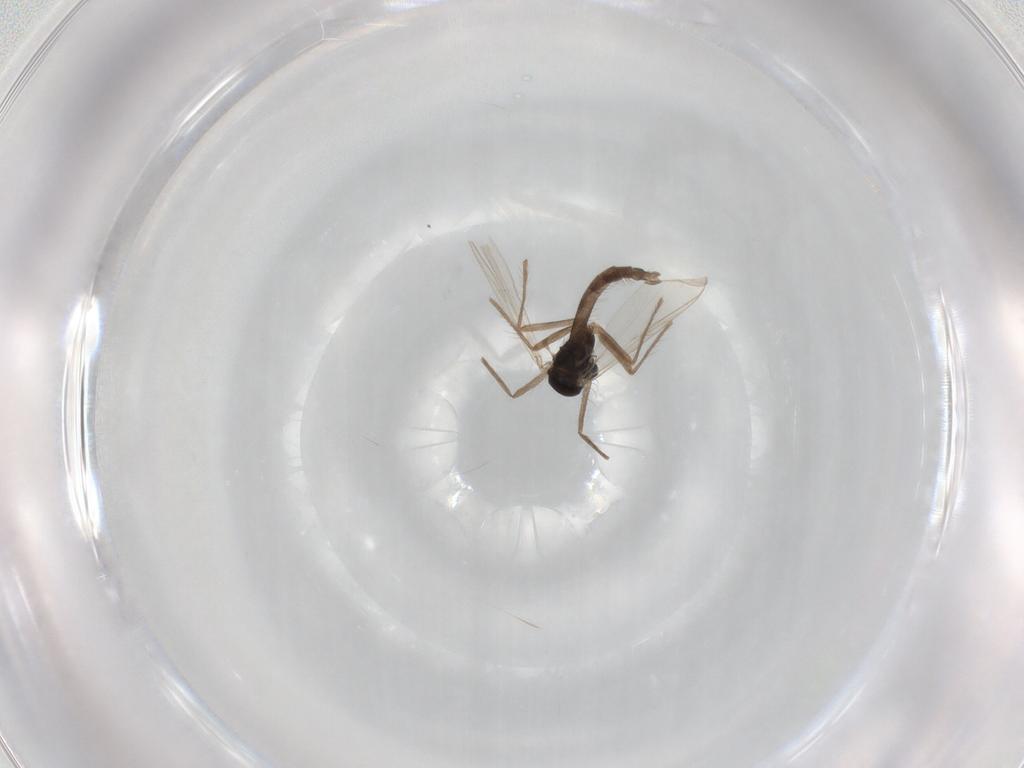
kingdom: Animalia
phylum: Arthropoda
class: Insecta
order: Diptera
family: Chironomidae
